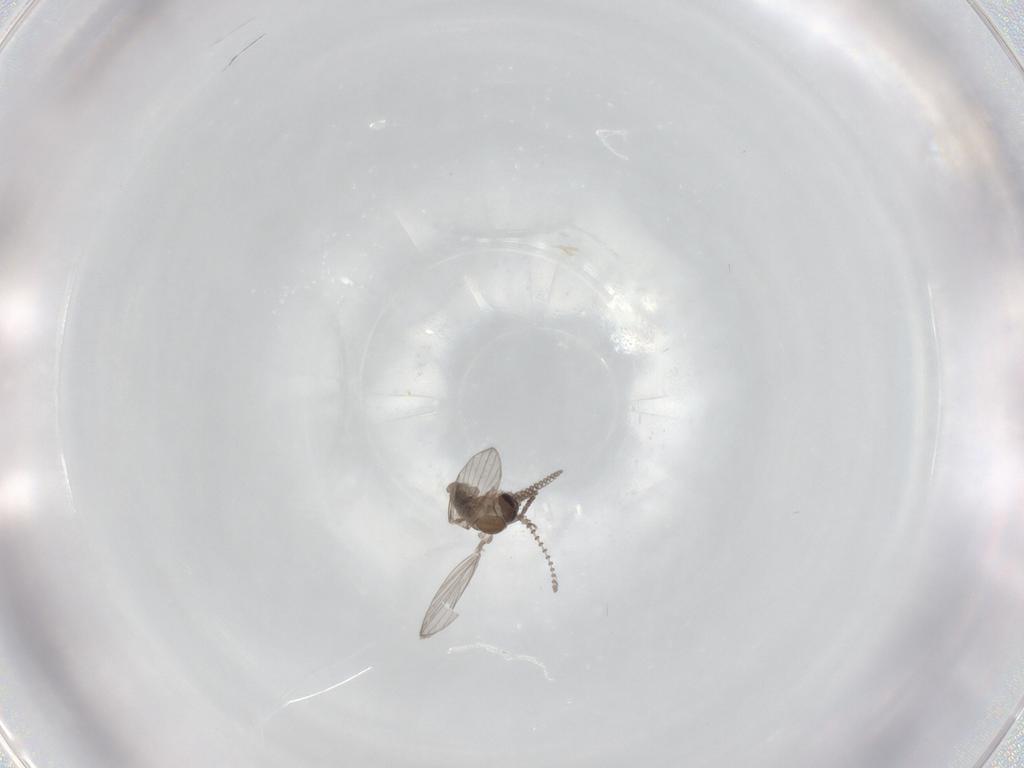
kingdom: Animalia
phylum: Arthropoda
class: Insecta
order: Diptera
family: Psychodidae
